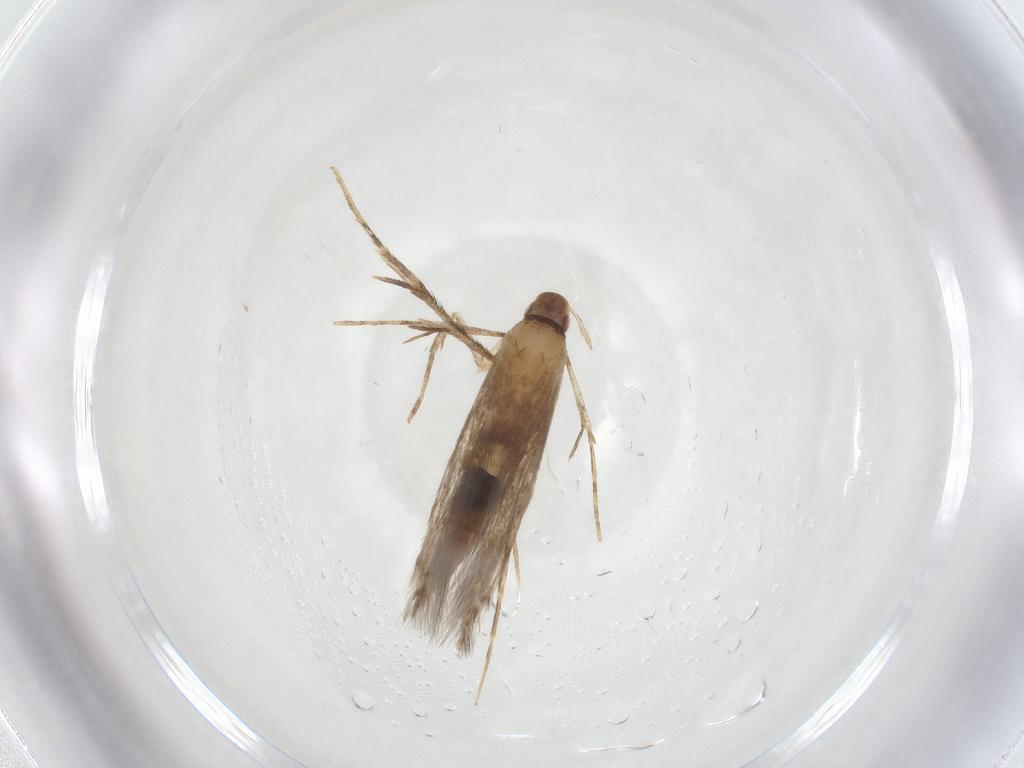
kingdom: Animalia
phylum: Arthropoda
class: Insecta
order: Lepidoptera
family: Cosmopterigidae
